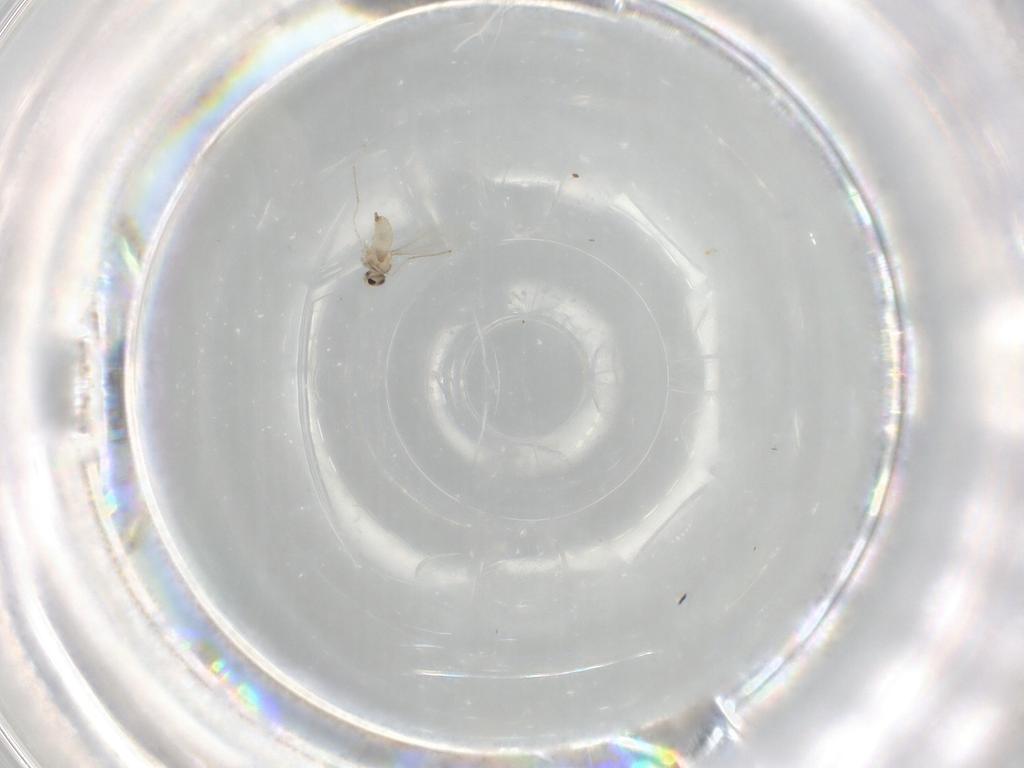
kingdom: Animalia
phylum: Arthropoda
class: Insecta
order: Diptera
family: Cecidomyiidae
